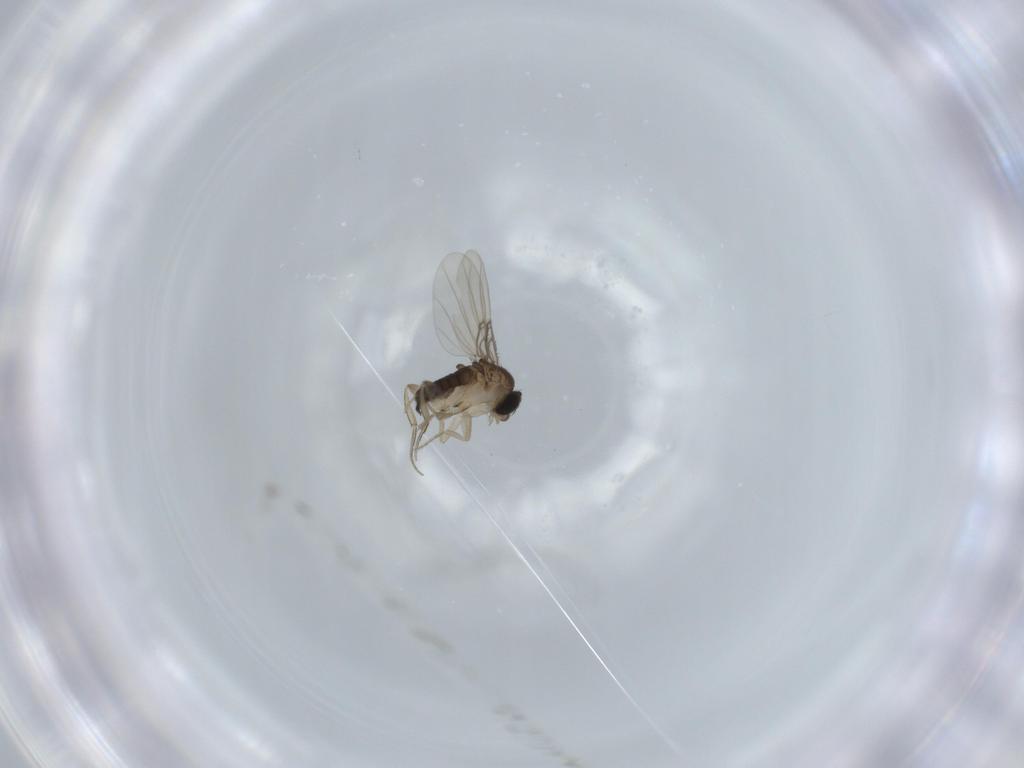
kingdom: Animalia
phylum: Arthropoda
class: Insecta
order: Diptera
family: Phoridae
